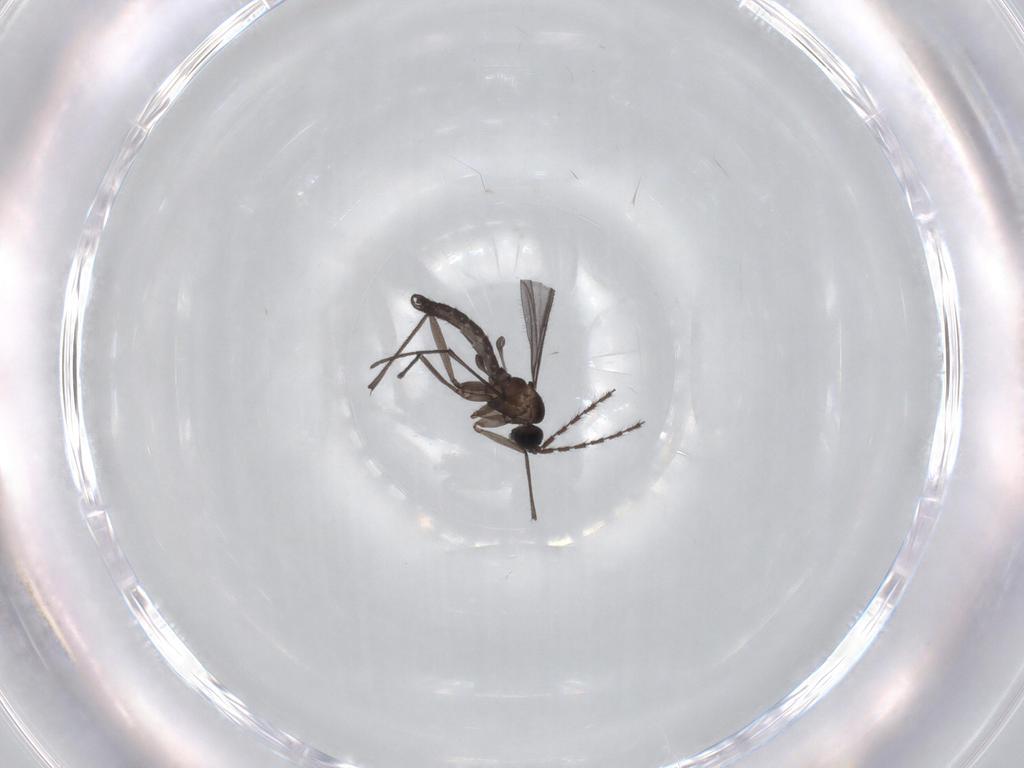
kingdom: Animalia
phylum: Arthropoda
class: Insecta
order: Diptera
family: Sciaridae
